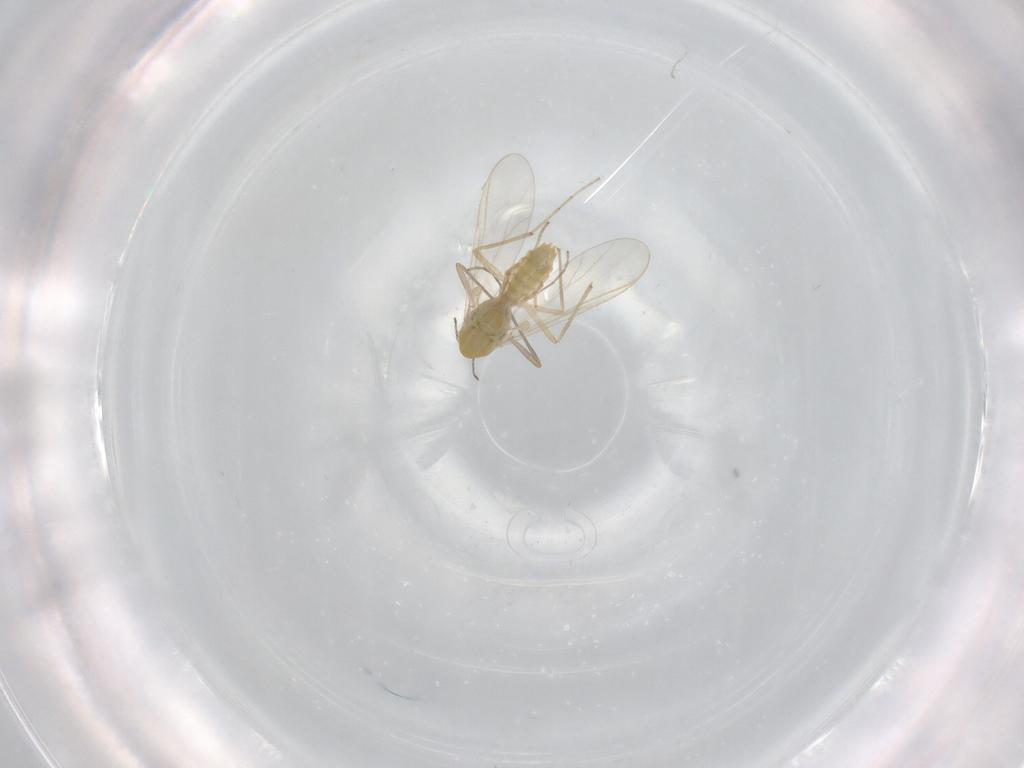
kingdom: Animalia
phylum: Arthropoda
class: Insecta
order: Diptera
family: Chironomidae
